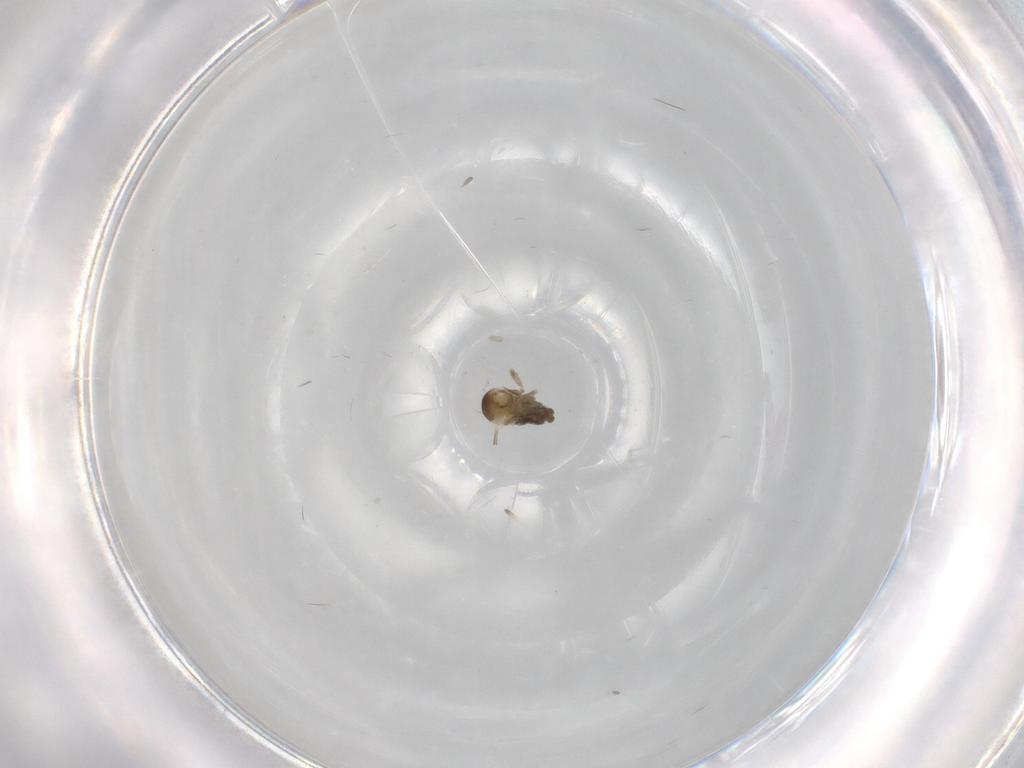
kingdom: Animalia
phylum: Arthropoda
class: Insecta
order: Diptera
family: Cecidomyiidae
